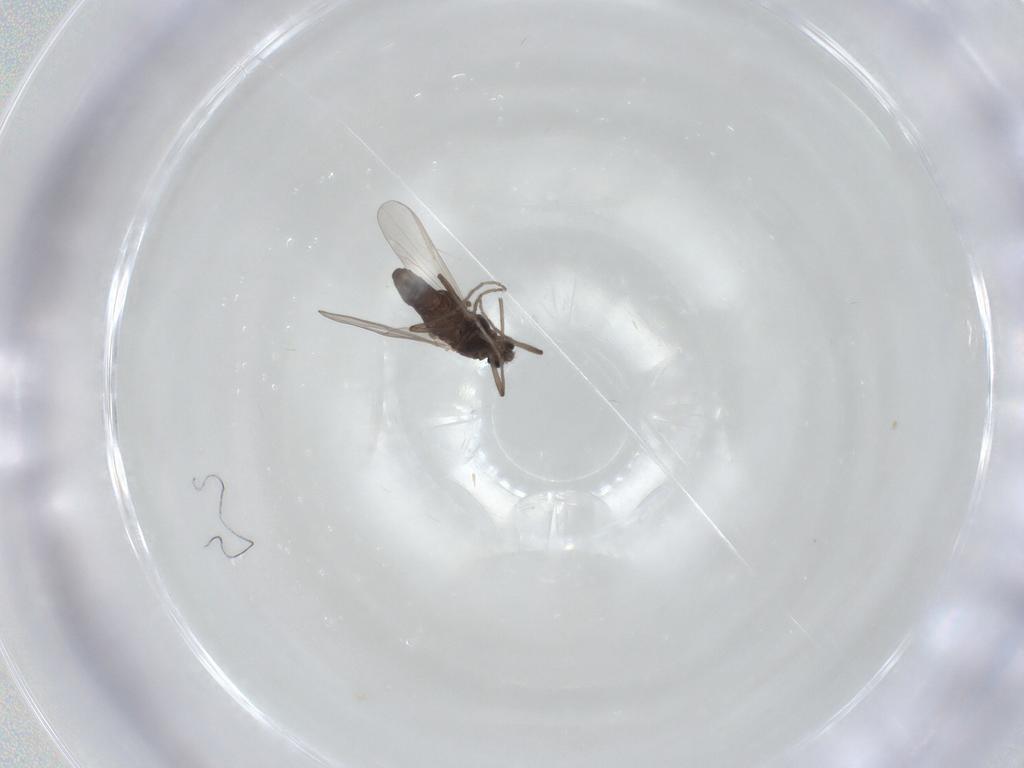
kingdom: Animalia
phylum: Arthropoda
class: Insecta
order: Diptera
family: Chironomidae
